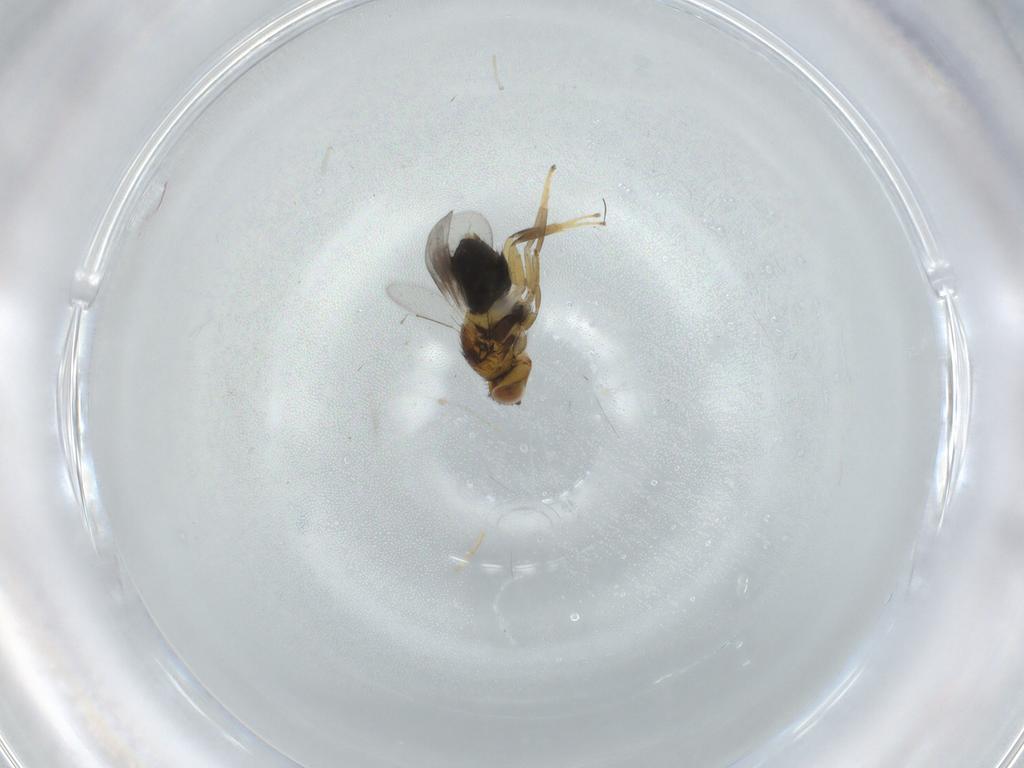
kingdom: Animalia
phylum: Arthropoda
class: Insecta
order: Hymenoptera
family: Aphelinidae
